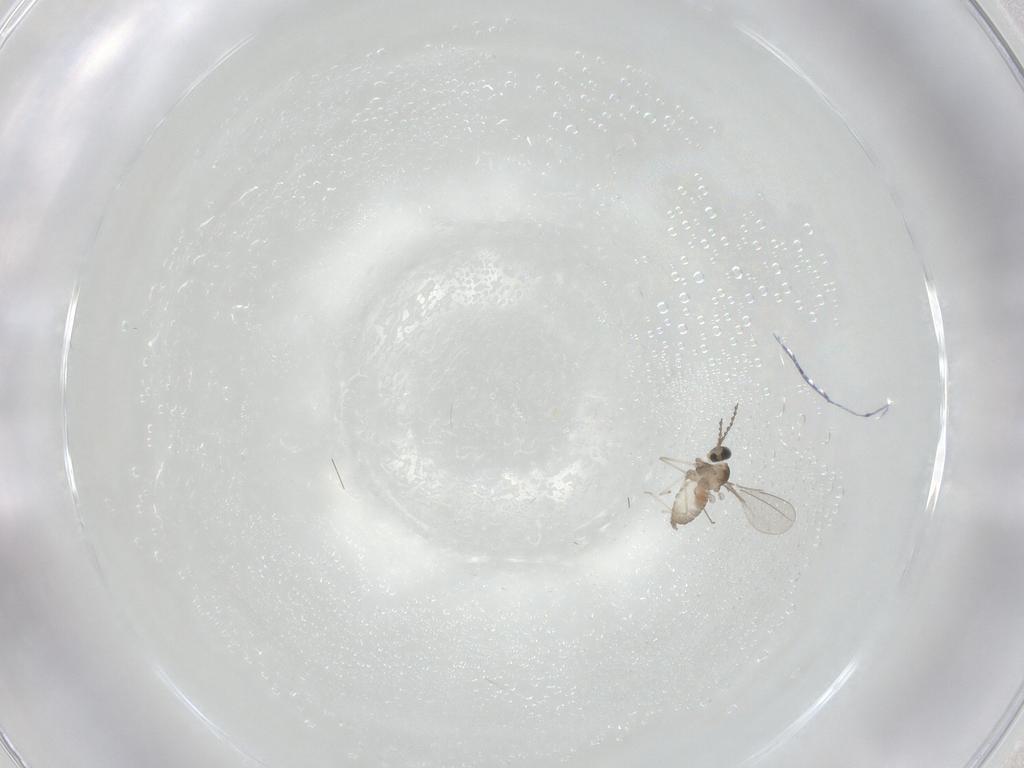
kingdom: Animalia
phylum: Arthropoda
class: Insecta
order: Diptera
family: Cecidomyiidae
